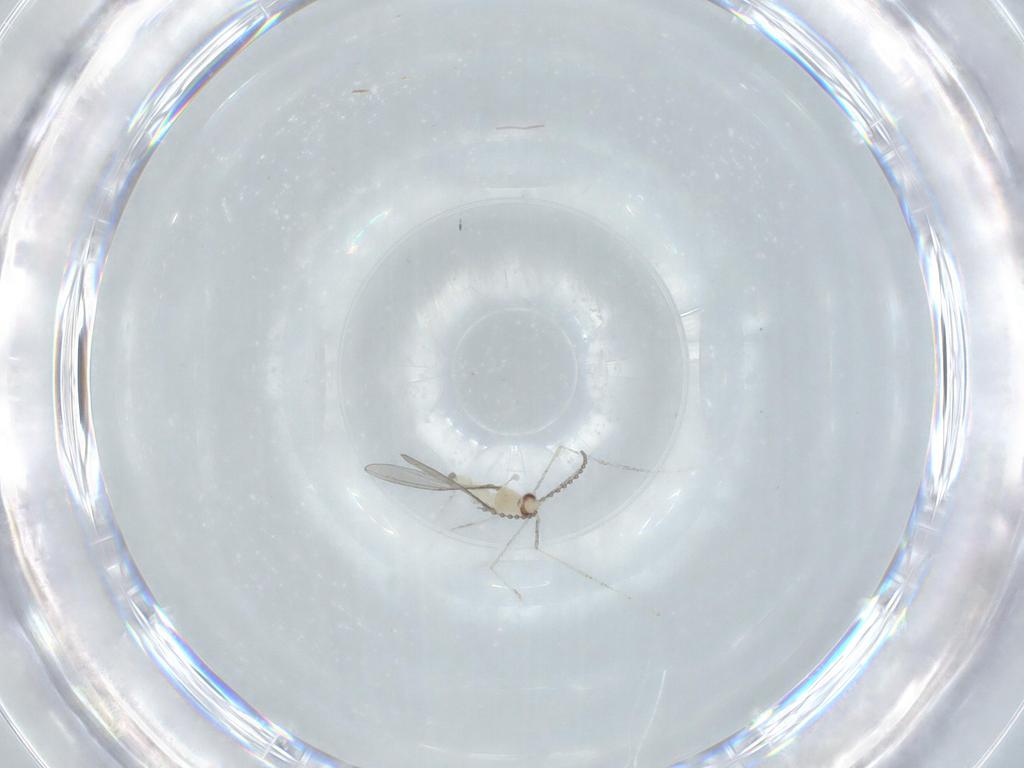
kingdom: Animalia
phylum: Arthropoda
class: Insecta
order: Diptera
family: Phoridae
